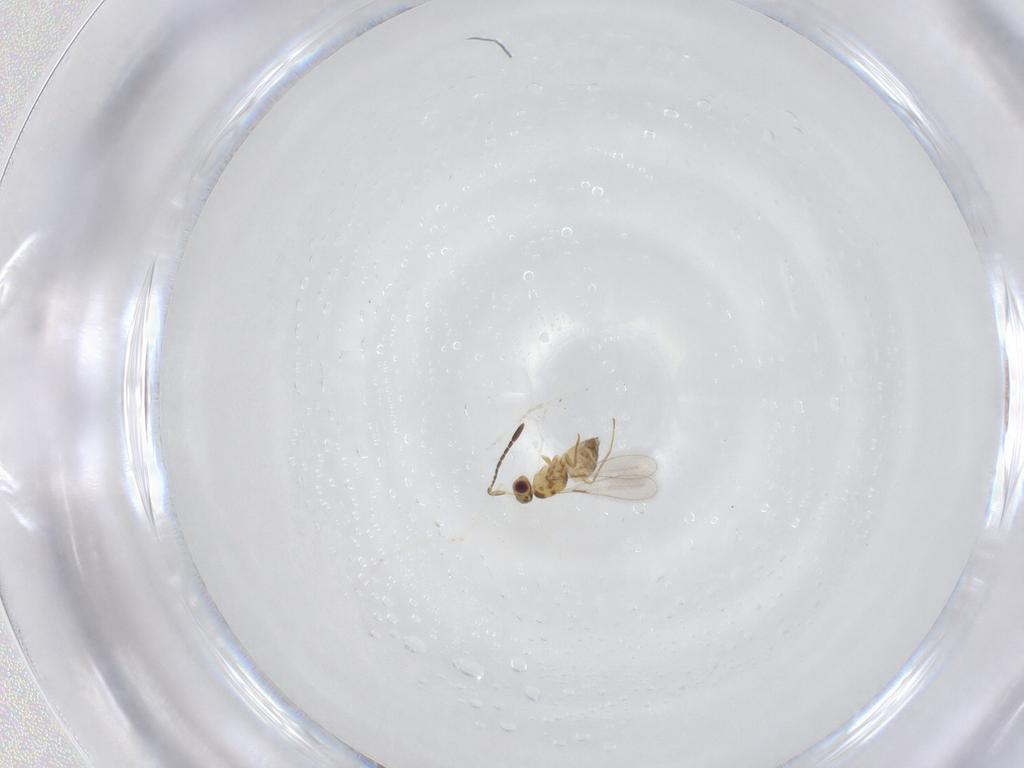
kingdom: Animalia
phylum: Arthropoda
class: Insecta
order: Hymenoptera
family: Mymaridae
